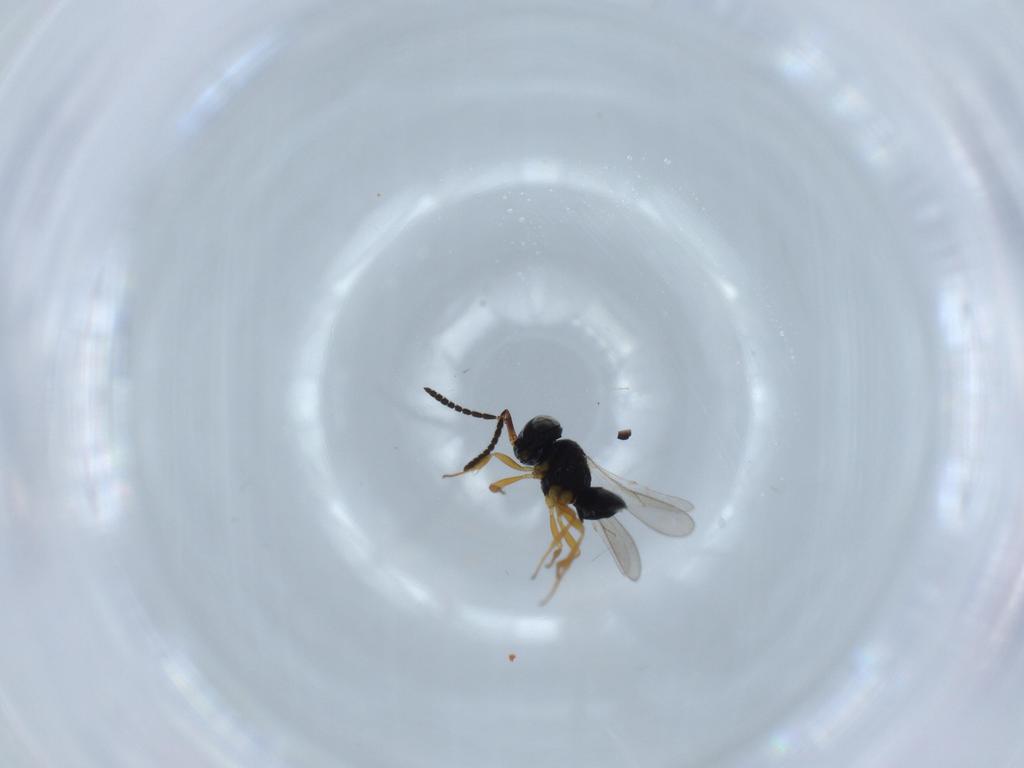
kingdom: Animalia
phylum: Arthropoda
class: Insecta
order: Hymenoptera
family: Scelionidae
